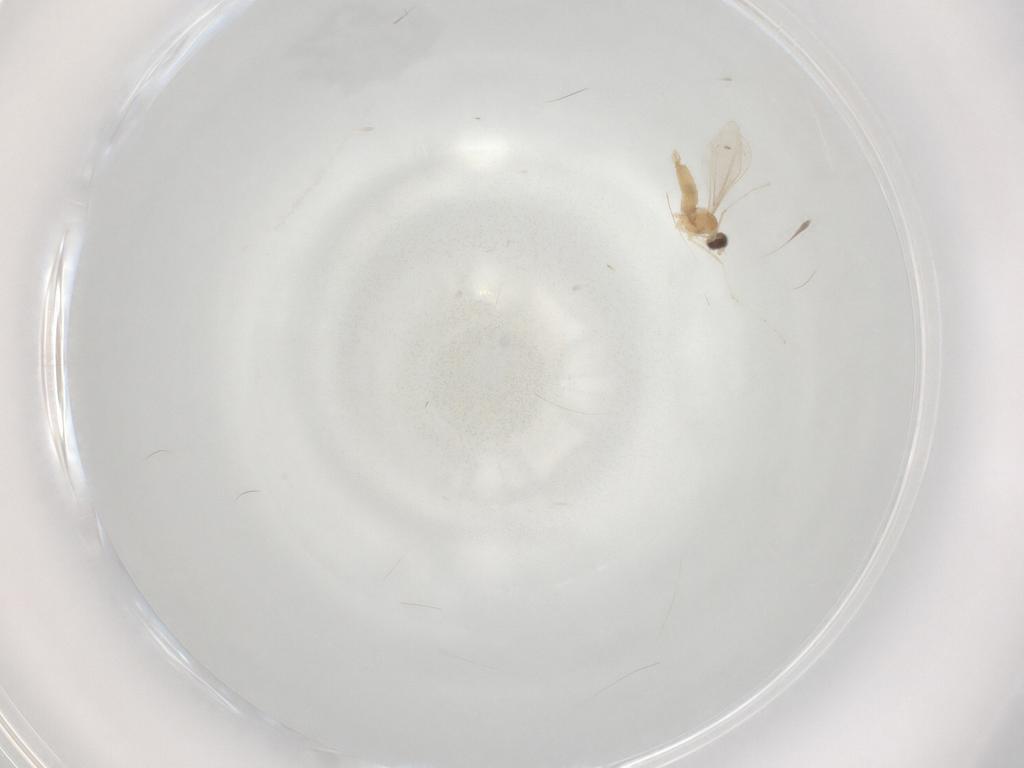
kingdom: Animalia
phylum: Arthropoda
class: Insecta
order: Diptera
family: Cecidomyiidae
